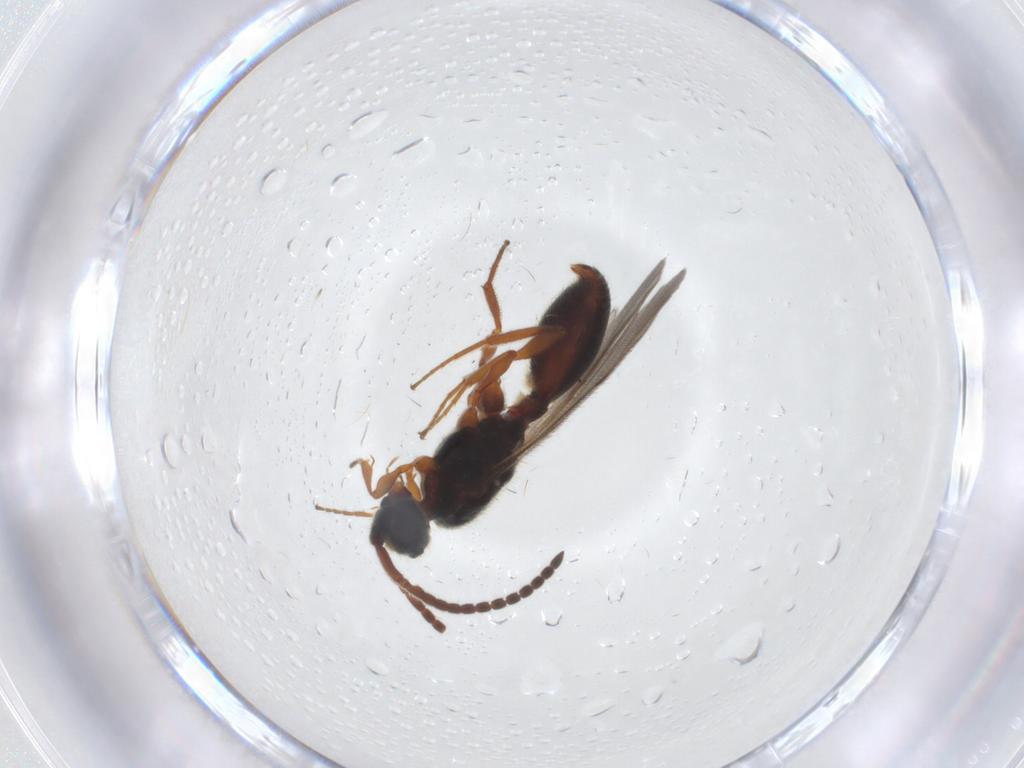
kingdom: Animalia
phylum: Arthropoda
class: Insecta
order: Hymenoptera
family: Diapriidae
